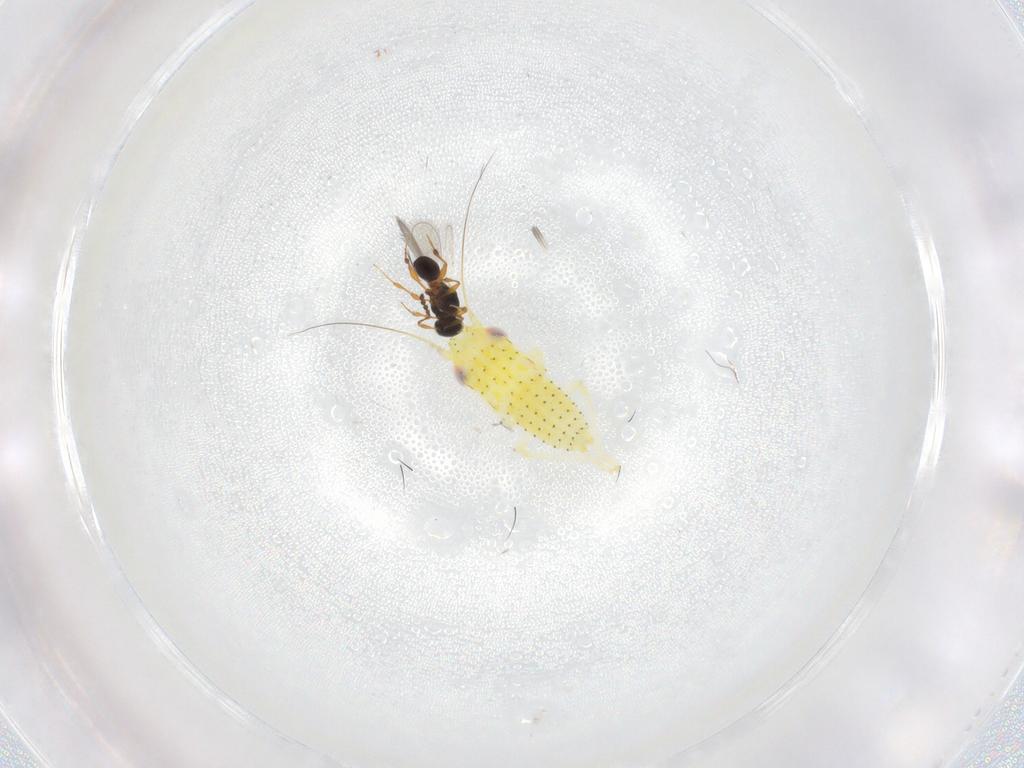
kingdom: Animalia
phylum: Arthropoda
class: Insecta
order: Hemiptera
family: Cicadellidae
